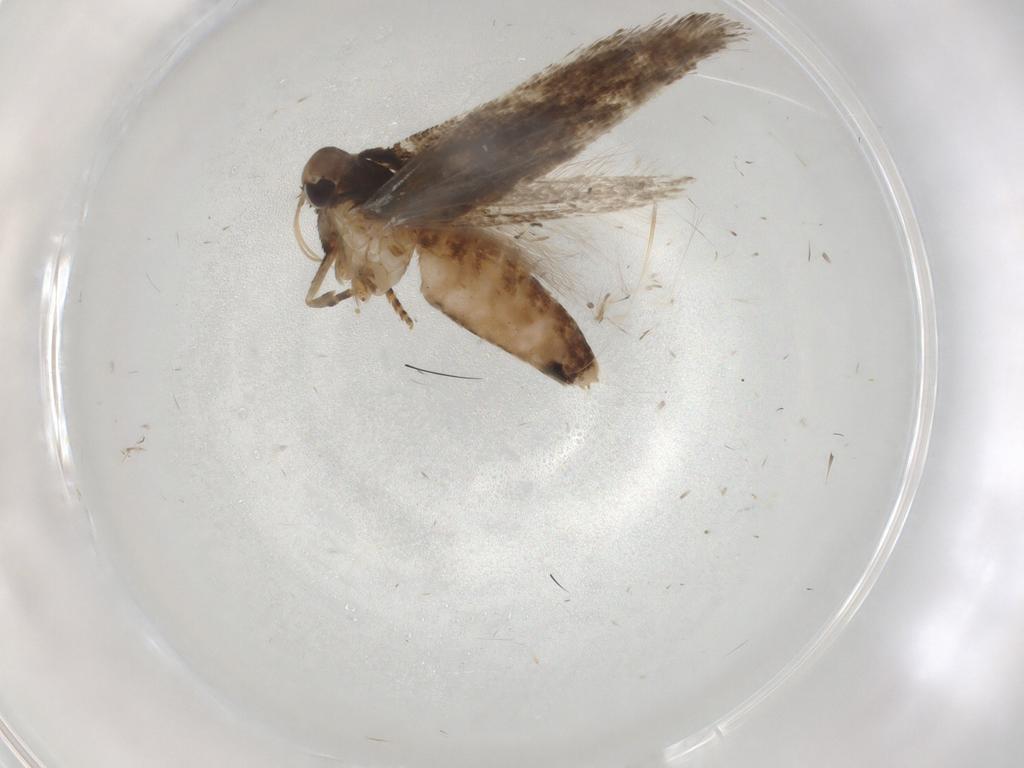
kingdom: Animalia
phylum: Arthropoda
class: Insecta
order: Lepidoptera
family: Cosmopterigidae
